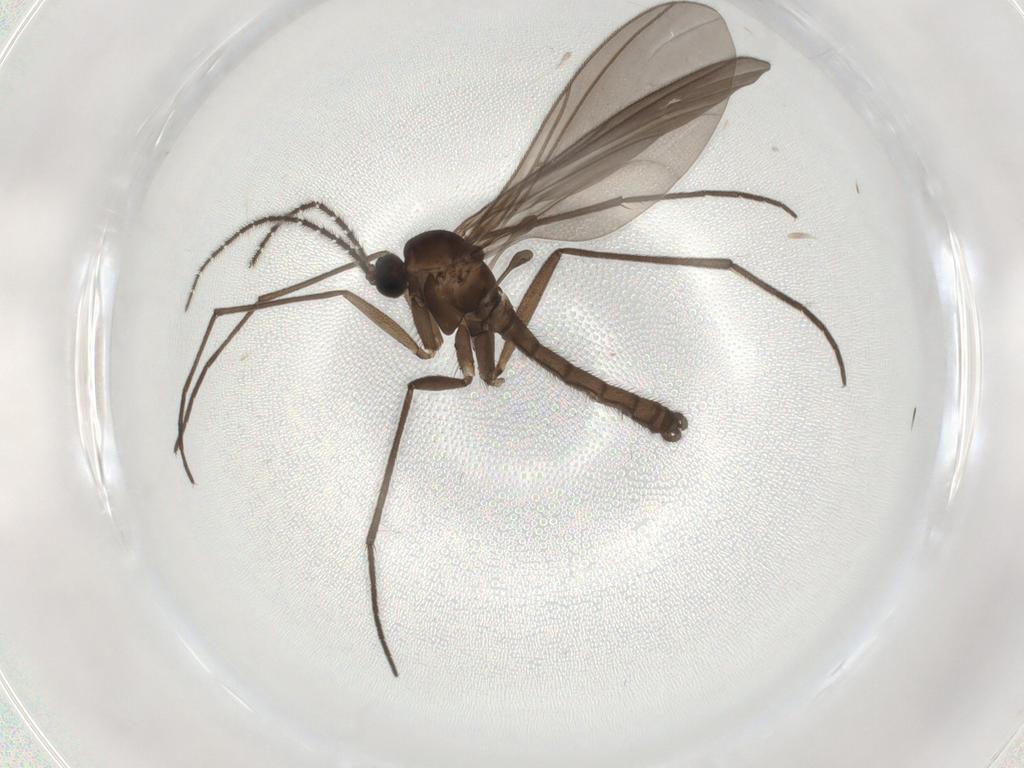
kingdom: Animalia
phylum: Arthropoda
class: Insecta
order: Diptera
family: Sciaridae
